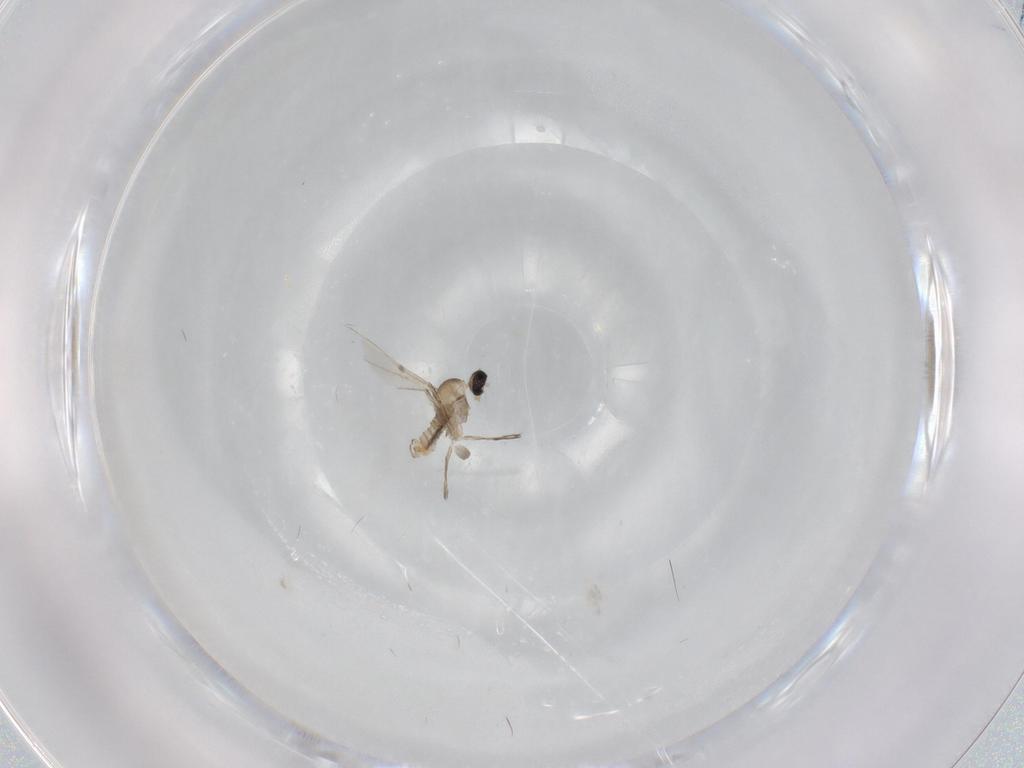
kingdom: Animalia
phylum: Arthropoda
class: Insecta
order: Diptera
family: Cecidomyiidae
